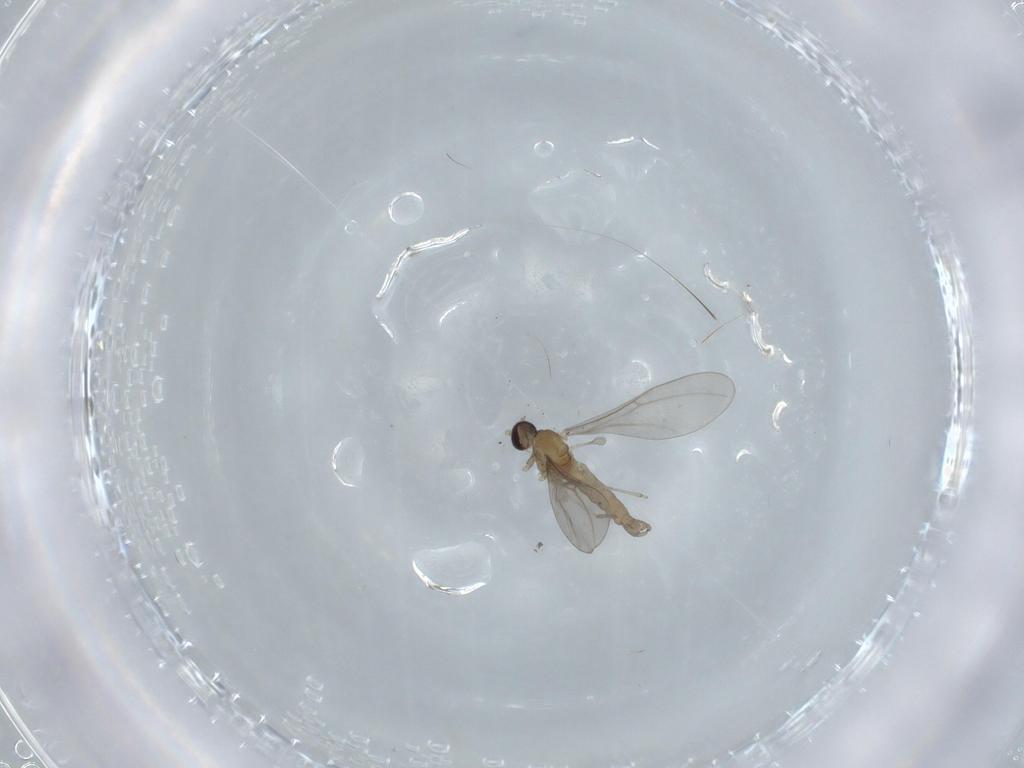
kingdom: Animalia
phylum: Arthropoda
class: Insecta
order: Diptera
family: Cecidomyiidae
